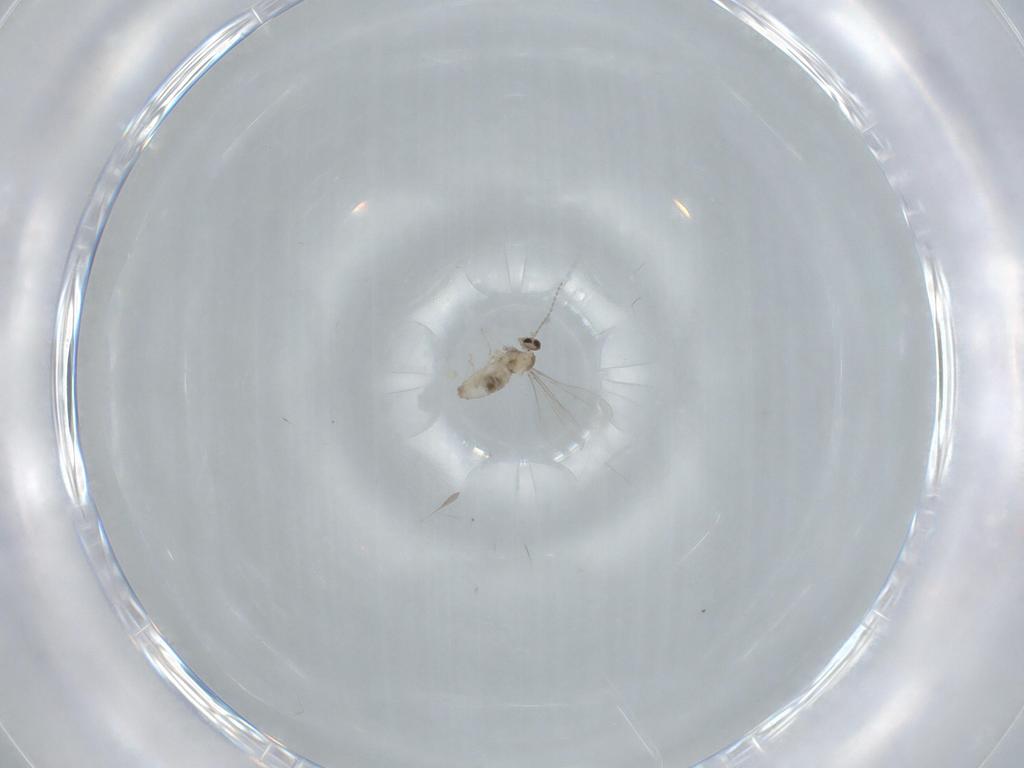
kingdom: Animalia
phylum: Arthropoda
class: Insecta
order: Diptera
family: Cecidomyiidae
